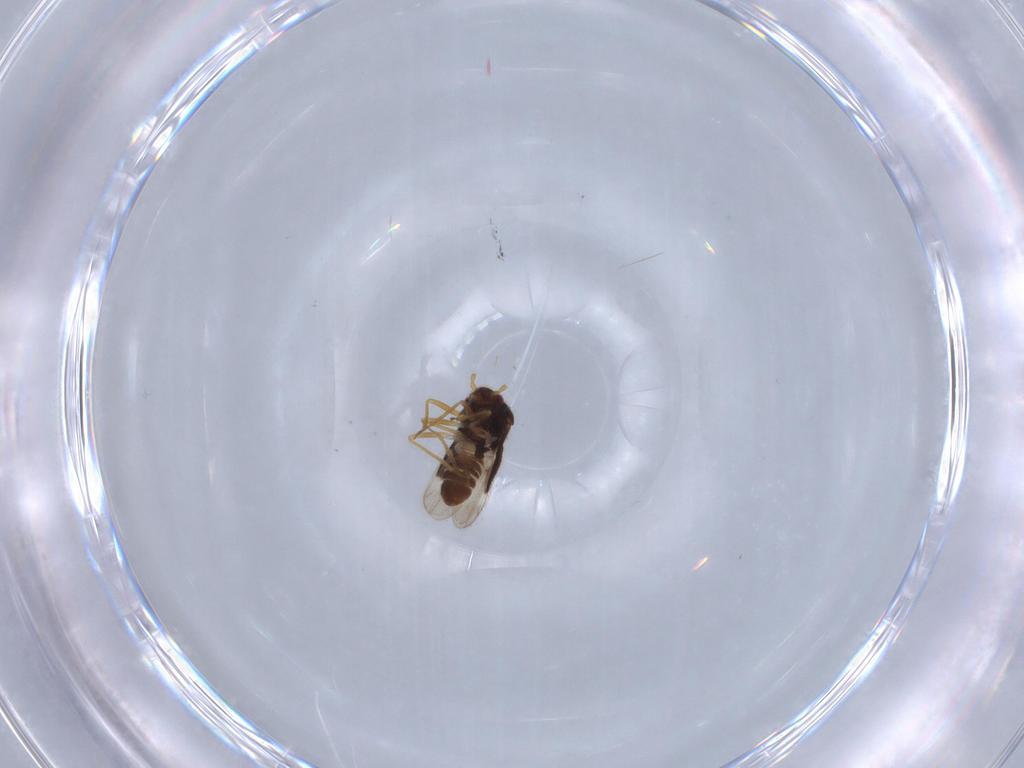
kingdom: Animalia
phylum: Arthropoda
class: Insecta
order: Hemiptera
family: Schizopteridae
